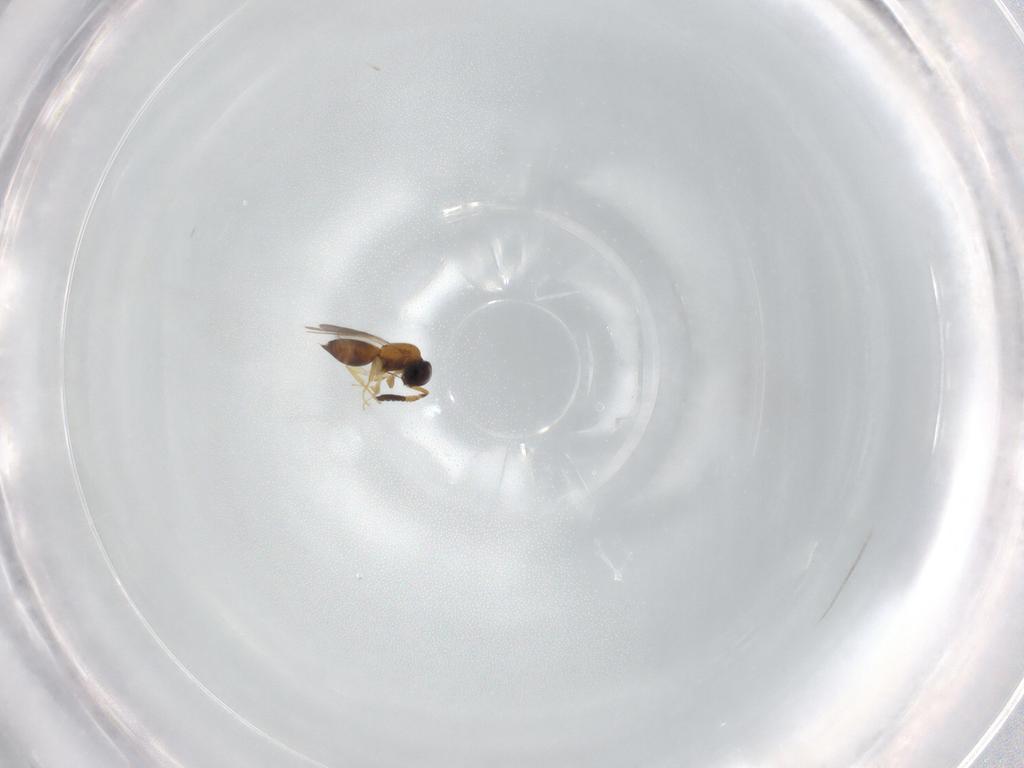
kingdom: Animalia
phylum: Arthropoda
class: Insecta
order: Hymenoptera
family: Ceraphronidae
